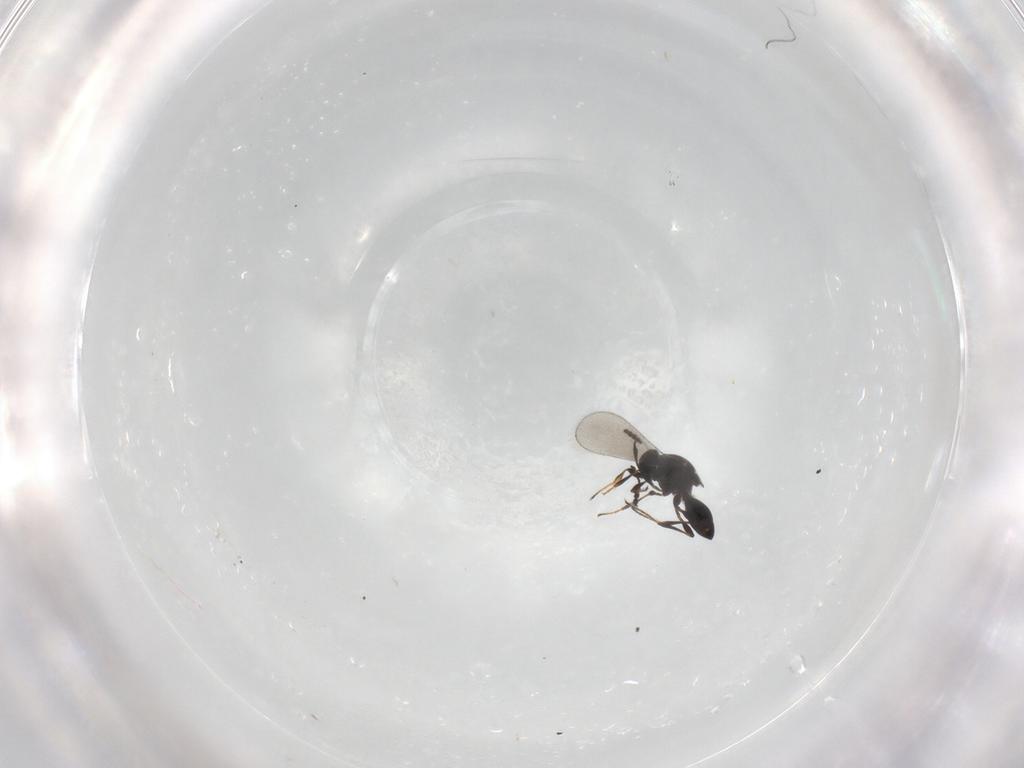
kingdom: Animalia
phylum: Arthropoda
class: Insecta
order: Hymenoptera
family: Platygastridae
